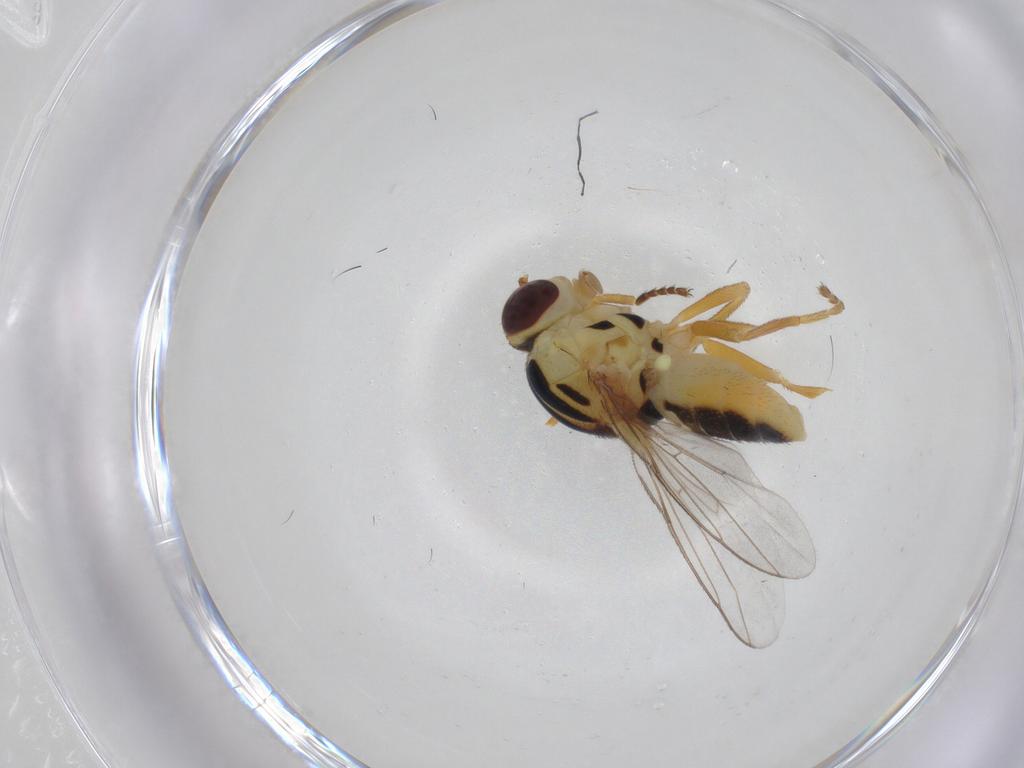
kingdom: Animalia
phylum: Arthropoda
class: Insecta
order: Diptera
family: Chloropidae
